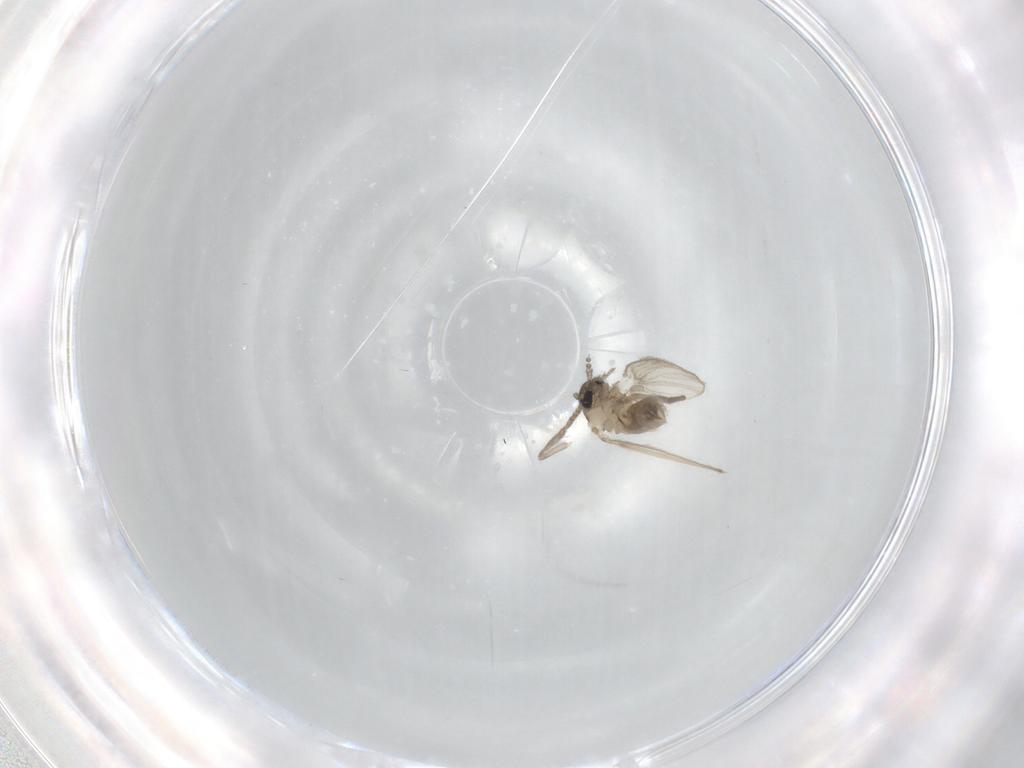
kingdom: Animalia
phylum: Arthropoda
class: Insecta
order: Diptera
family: Psychodidae
